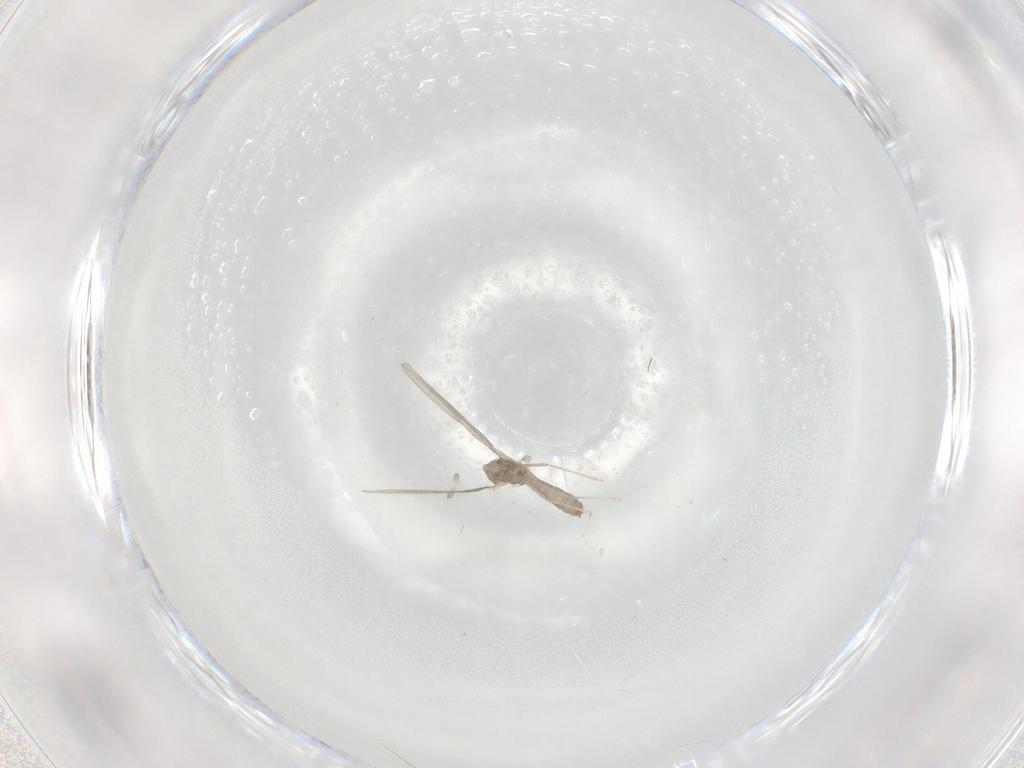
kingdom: Animalia
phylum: Arthropoda
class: Insecta
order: Diptera
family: Cecidomyiidae
